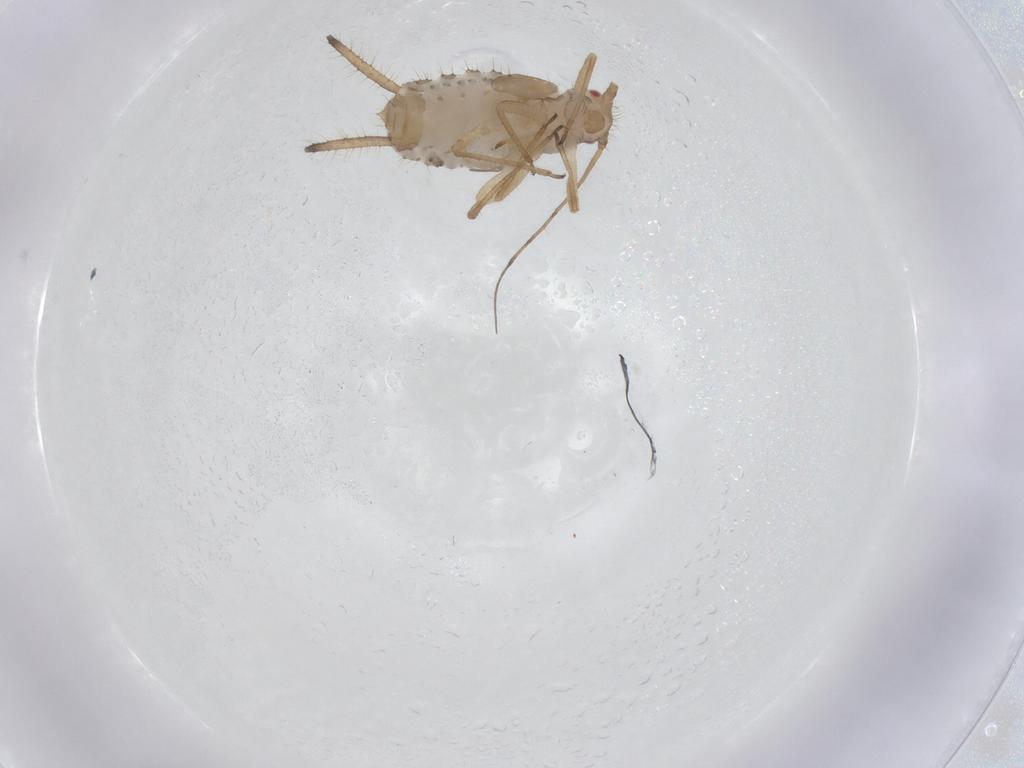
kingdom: Animalia
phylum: Arthropoda
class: Insecta
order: Hemiptera
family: Aphididae
